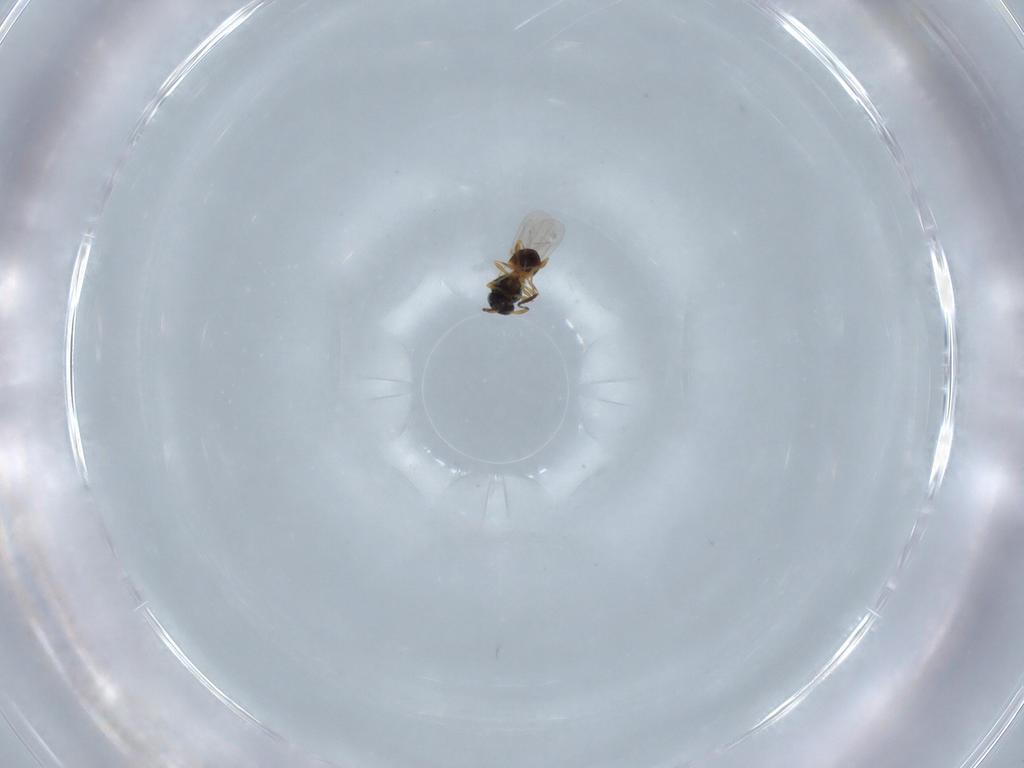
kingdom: Animalia
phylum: Arthropoda
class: Insecta
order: Hymenoptera
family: Platygastridae
